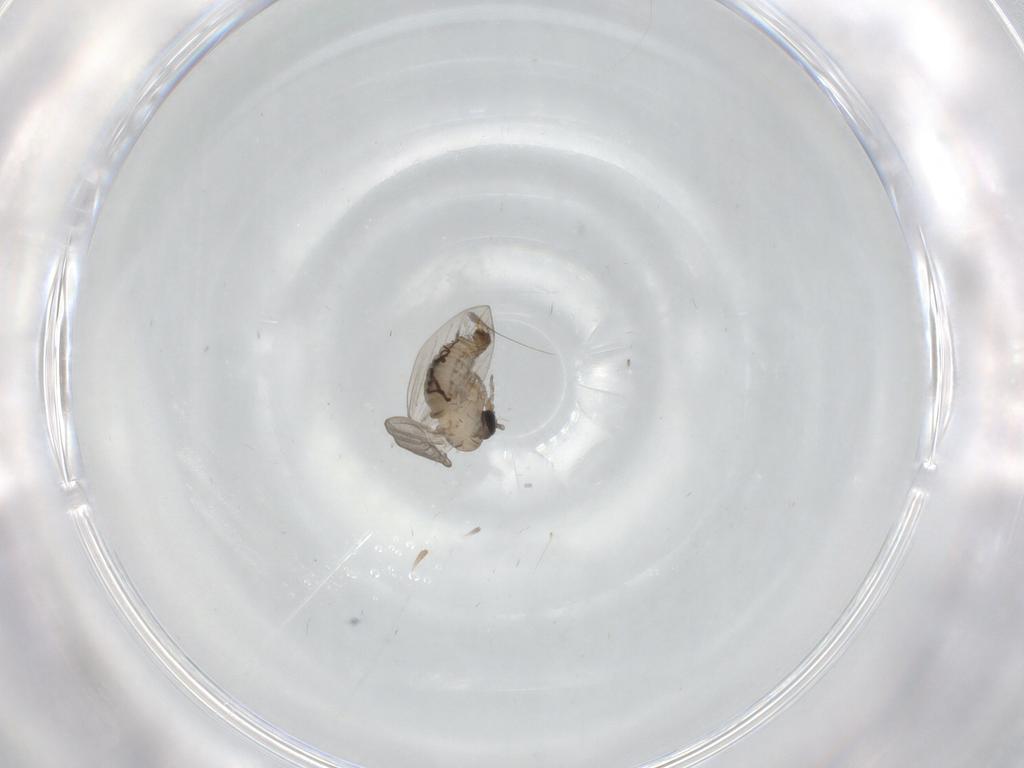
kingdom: Animalia
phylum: Arthropoda
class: Insecta
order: Diptera
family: Psychodidae
